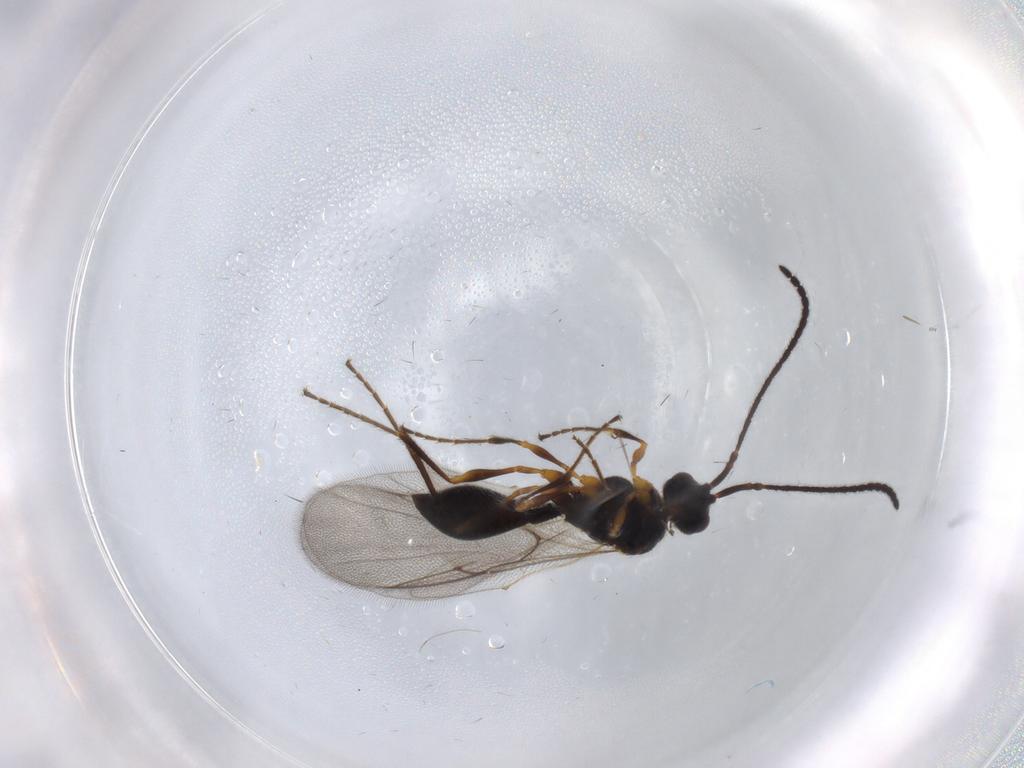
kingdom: Animalia
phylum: Arthropoda
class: Insecta
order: Hymenoptera
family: Diapriidae
